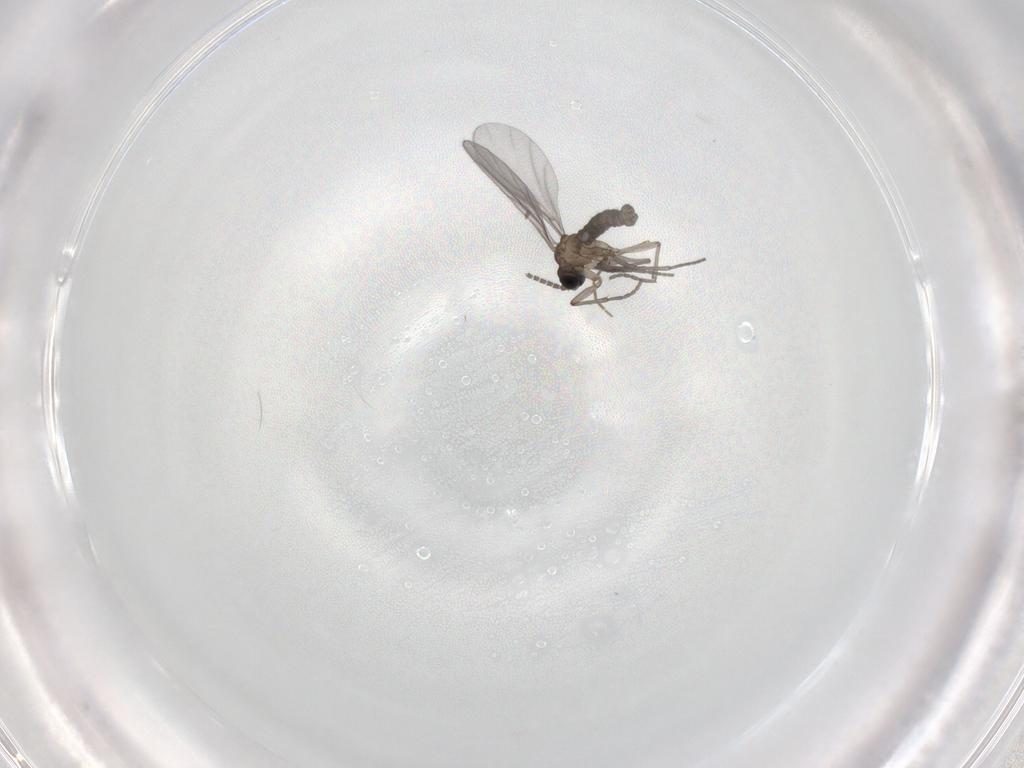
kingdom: Animalia
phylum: Arthropoda
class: Insecta
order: Diptera
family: Sciaridae
